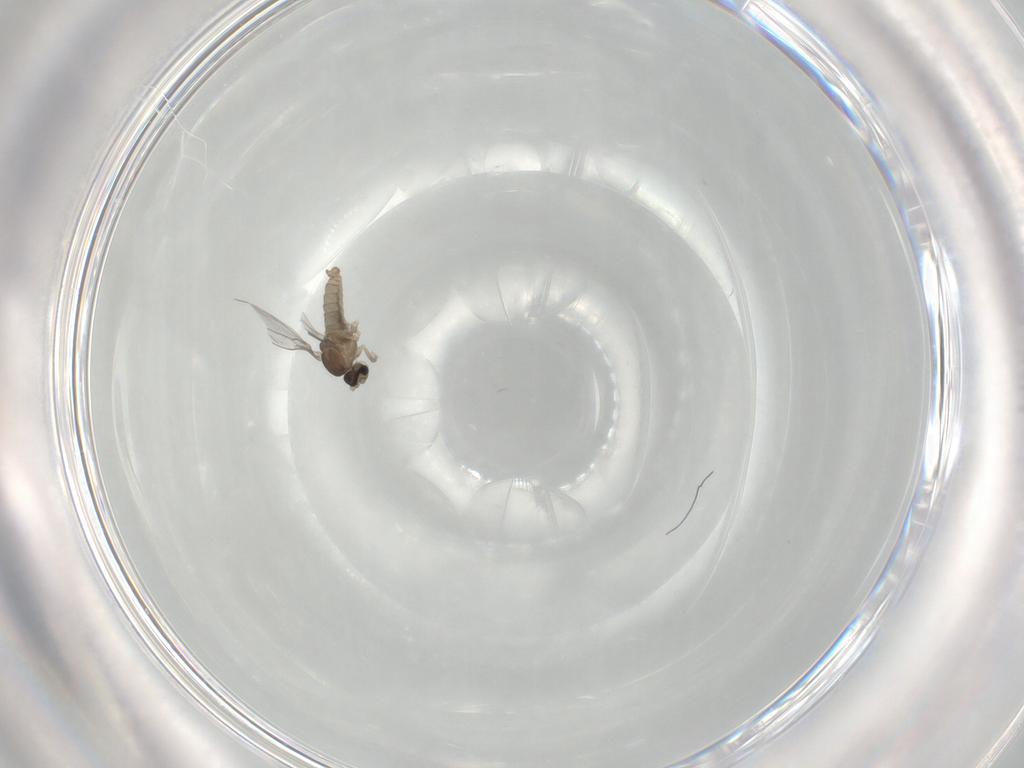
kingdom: Animalia
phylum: Arthropoda
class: Insecta
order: Diptera
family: Cecidomyiidae
